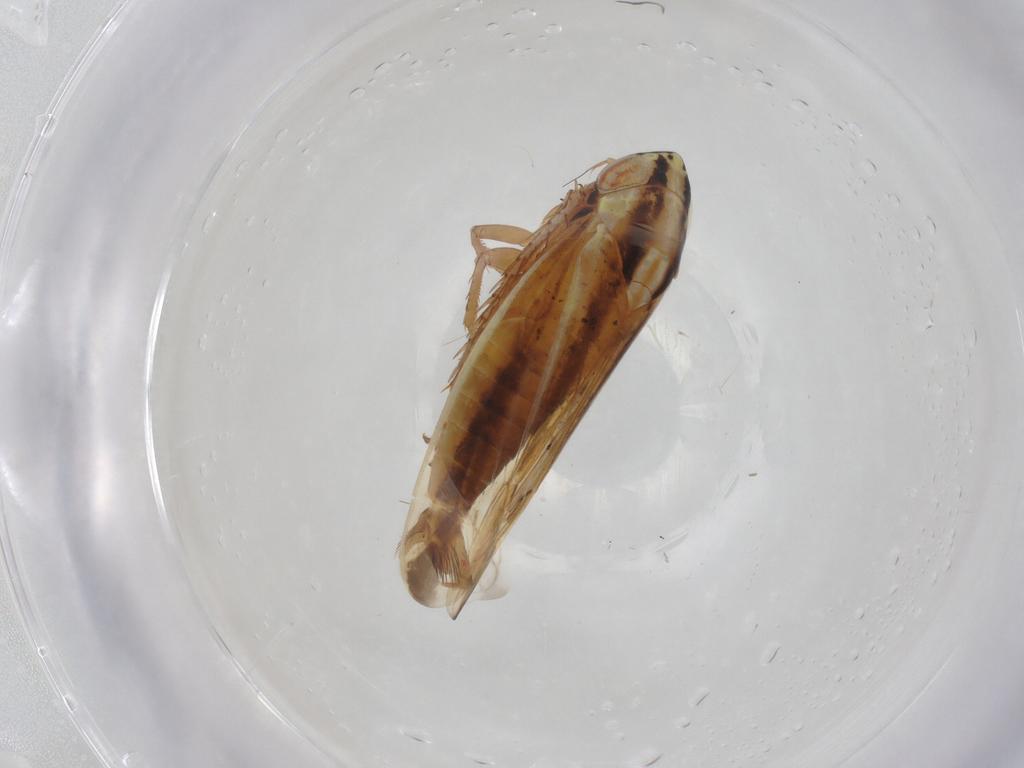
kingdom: Animalia
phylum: Arthropoda
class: Insecta
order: Hemiptera
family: Cicadellidae
